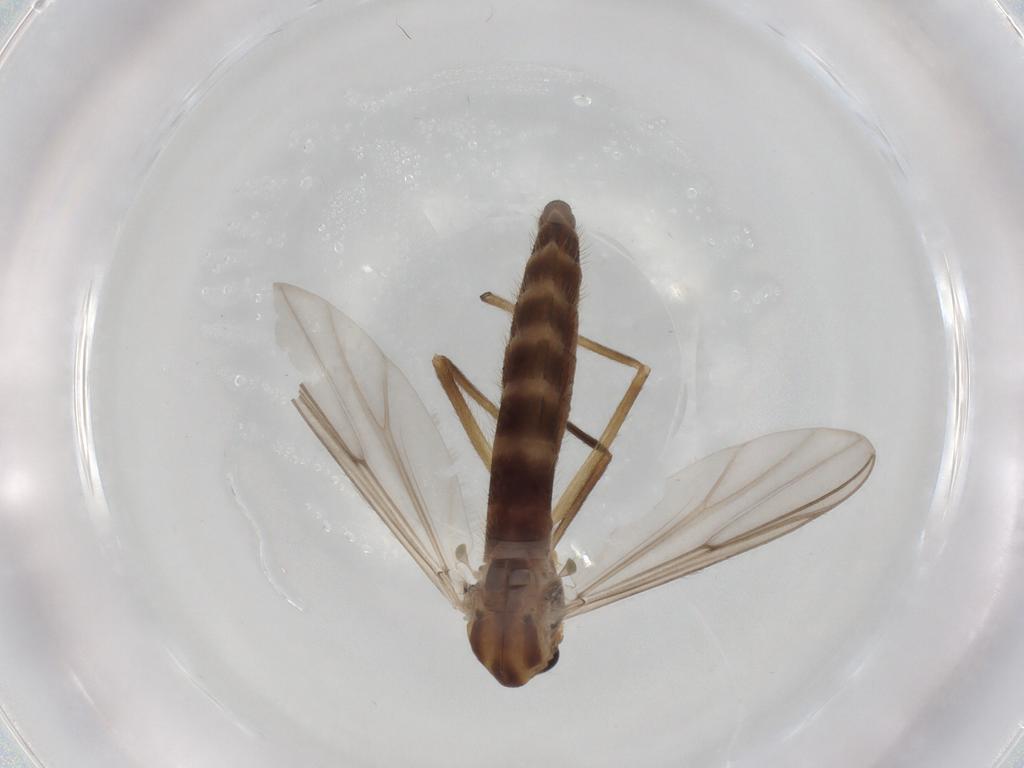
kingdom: Animalia
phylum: Arthropoda
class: Insecta
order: Diptera
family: Chironomidae
